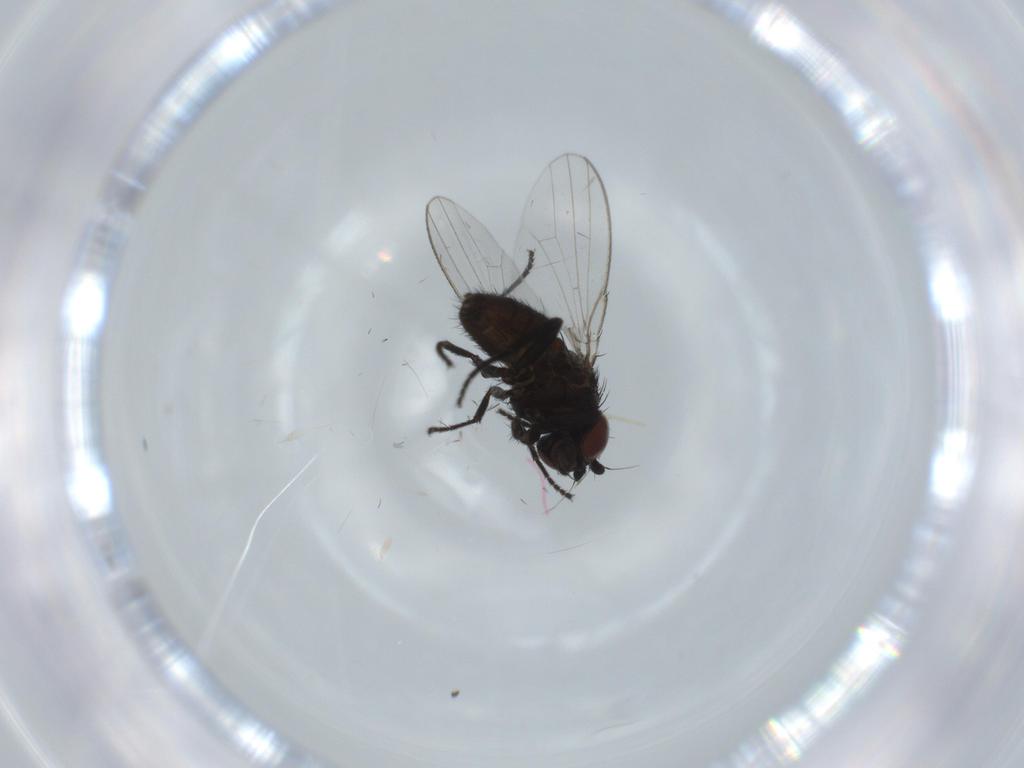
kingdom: Animalia
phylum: Arthropoda
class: Insecta
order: Diptera
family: Milichiidae
